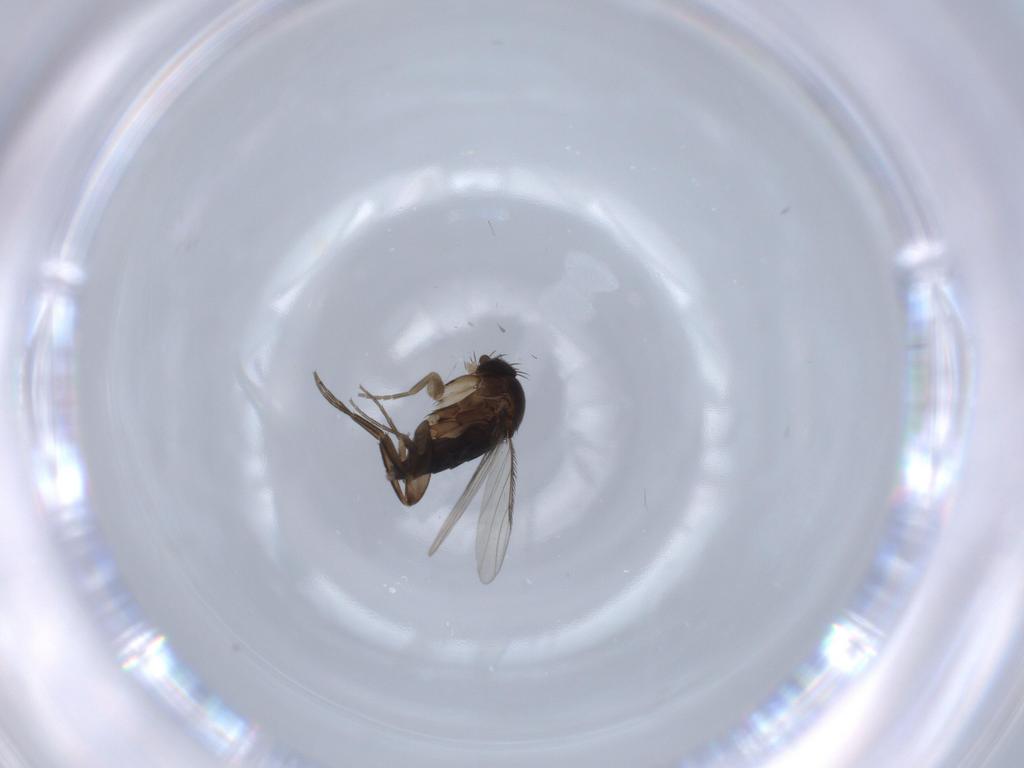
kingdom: Animalia
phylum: Arthropoda
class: Insecta
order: Diptera
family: Phoridae
